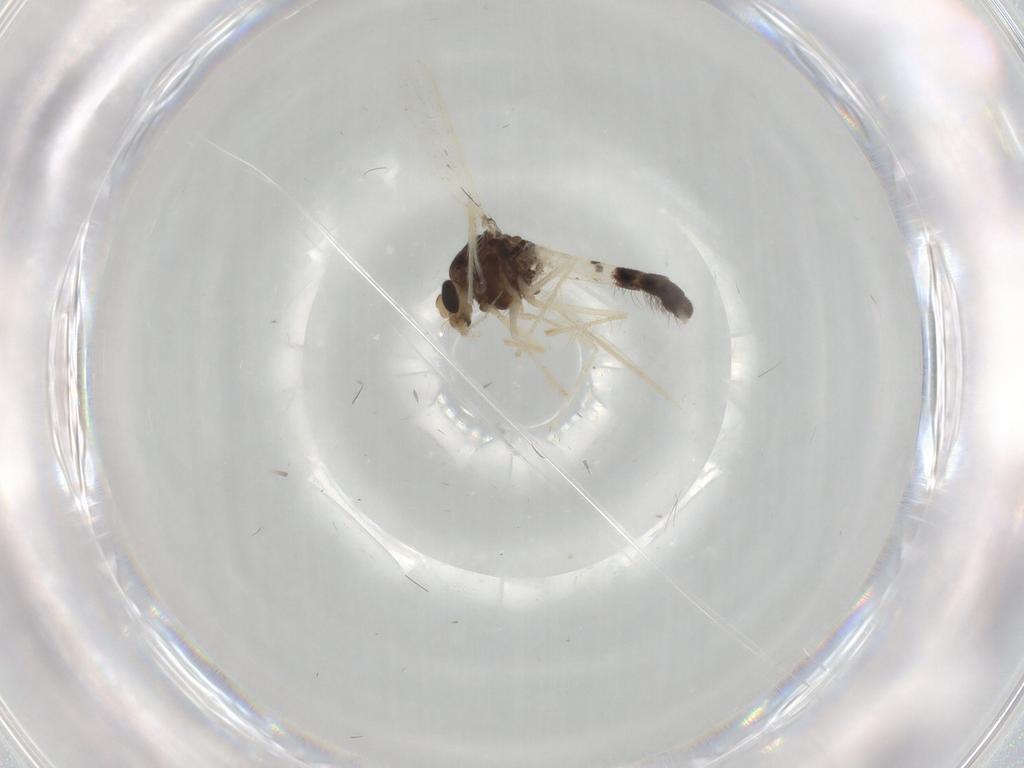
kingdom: Animalia
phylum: Arthropoda
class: Insecta
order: Diptera
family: Chironomidae
